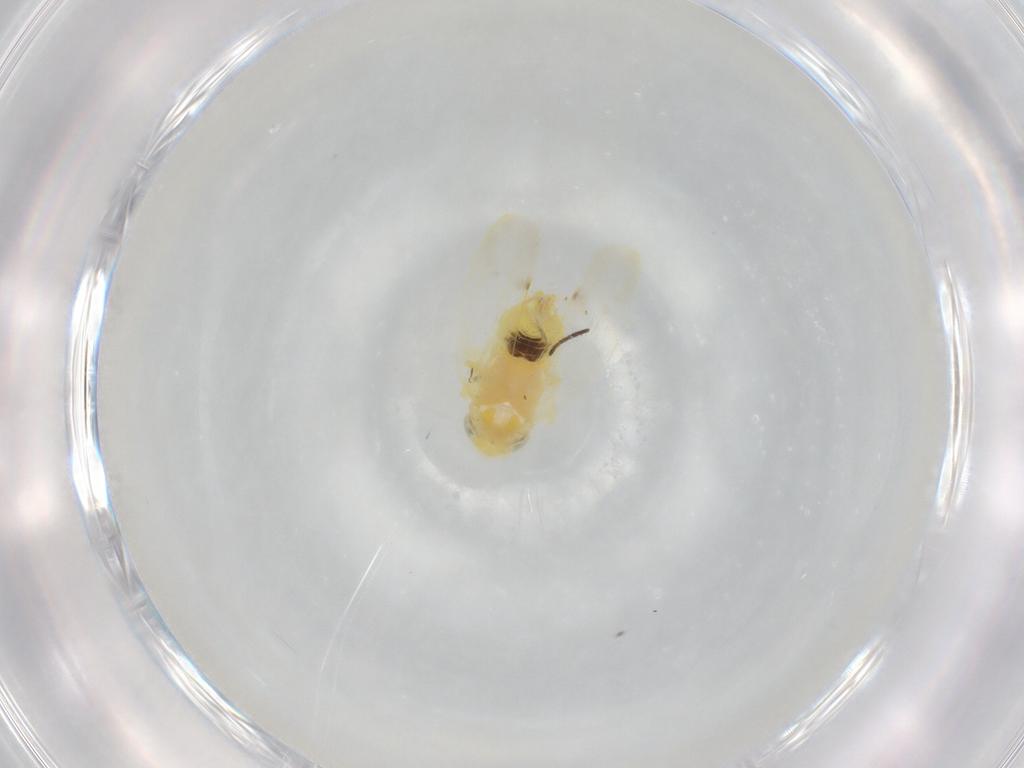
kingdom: Animalia
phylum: Arthropoda
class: Insecta
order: Hemiptera
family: Cicadellidae
